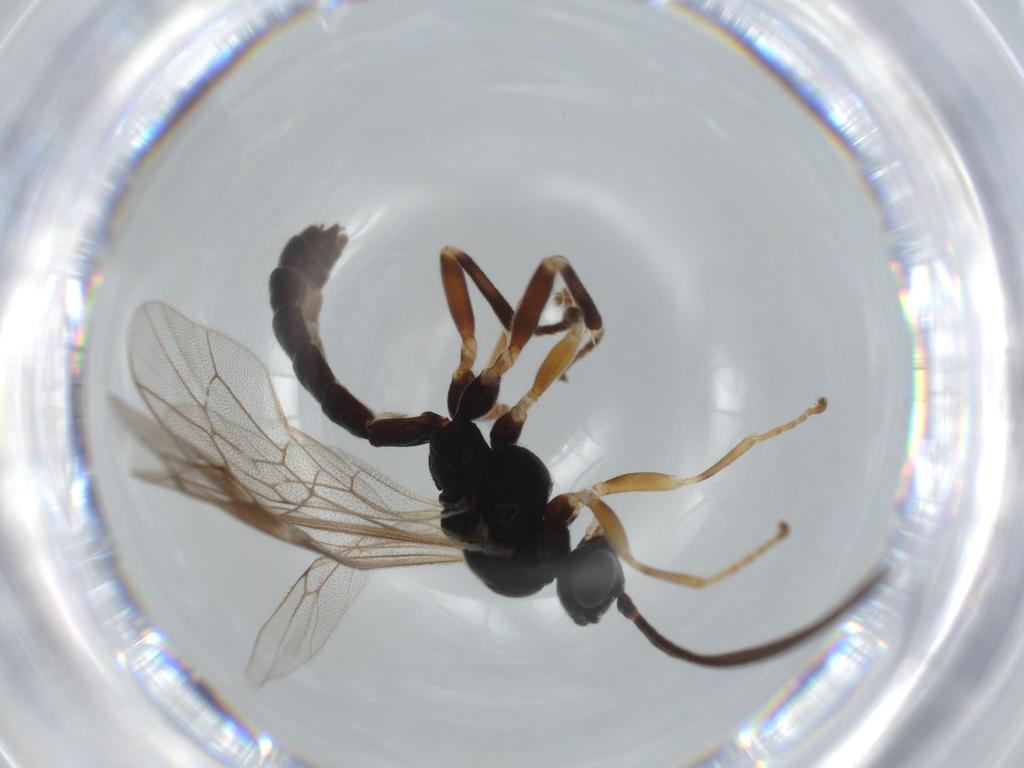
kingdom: Animalia
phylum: Arthropoda
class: Insecta
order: Hymenoptera
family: Ichneumonidae
